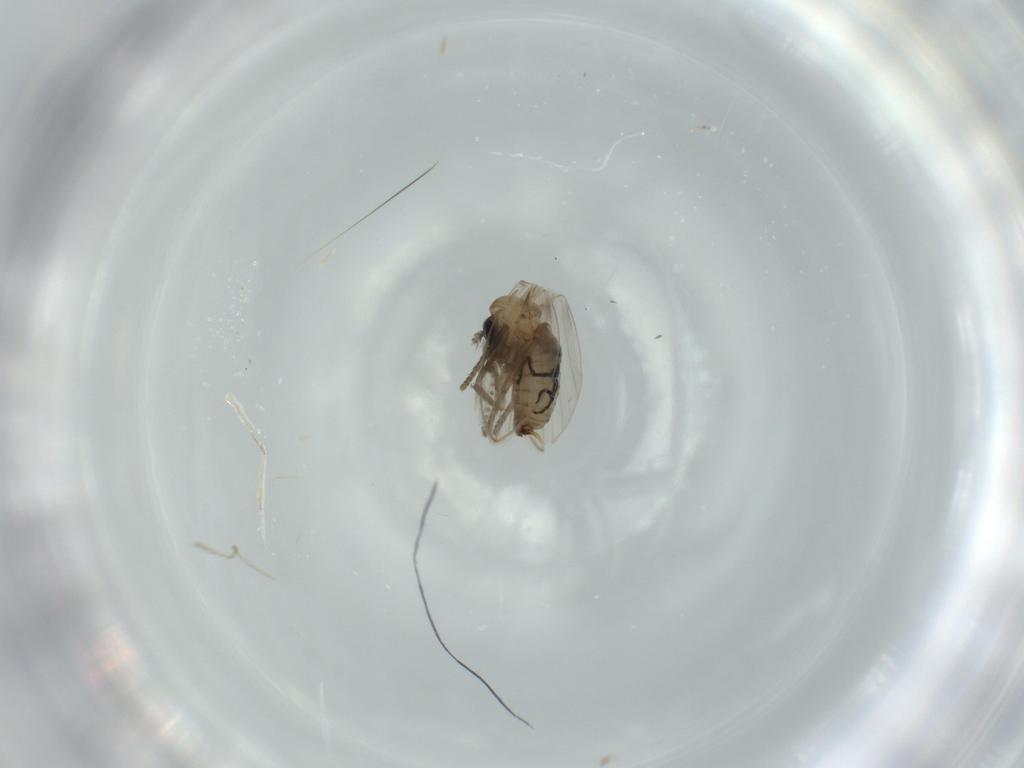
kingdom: Animalia
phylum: Arthropoda
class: Insecta
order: Diptera
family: Psychodidae
